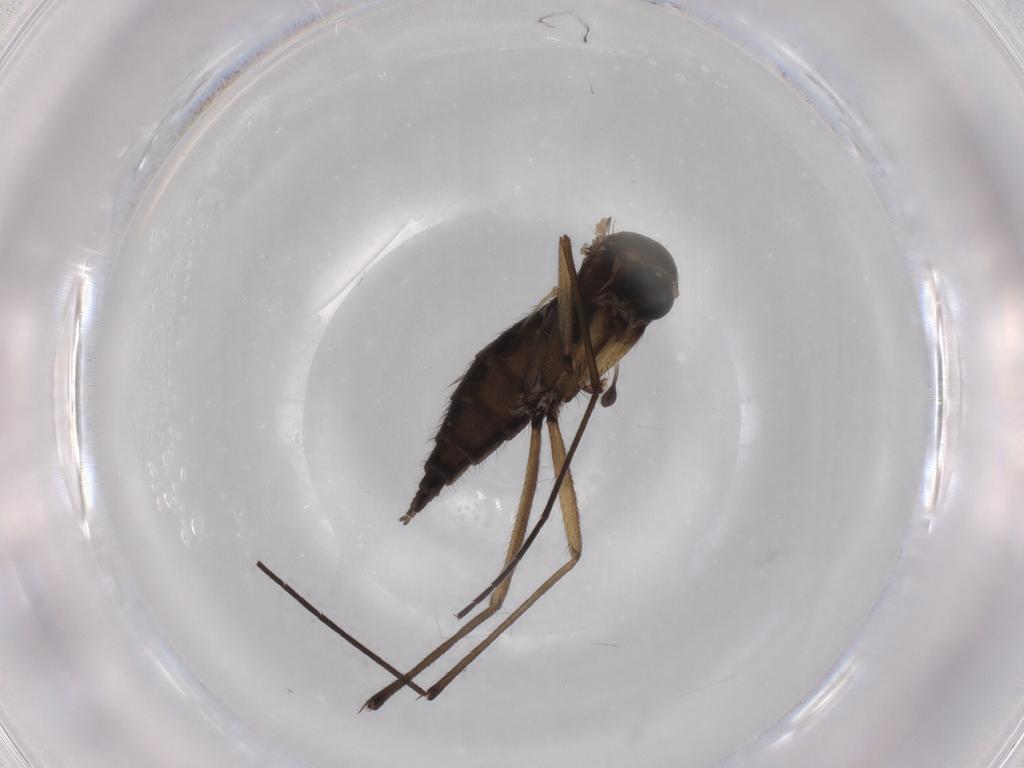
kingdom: Animalia
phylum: Arthropoda
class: Insecta
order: Diptera
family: Sciaridae
